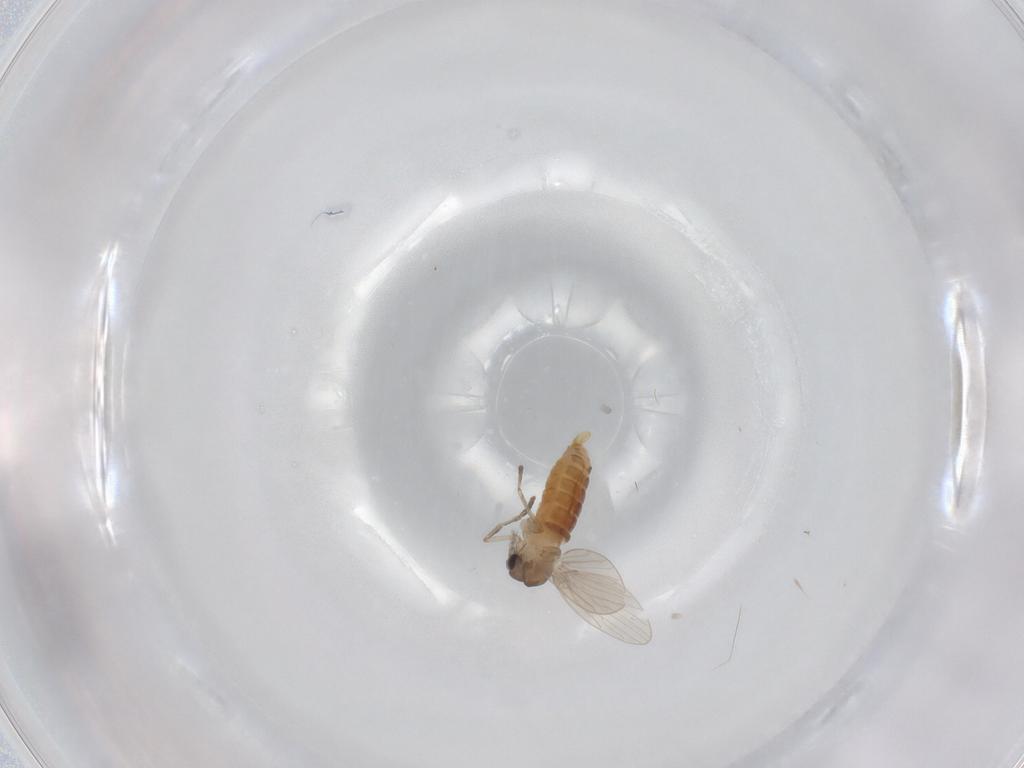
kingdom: Animalia
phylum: Arthropoda
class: Insecta
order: Diptera
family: Psychodidae
